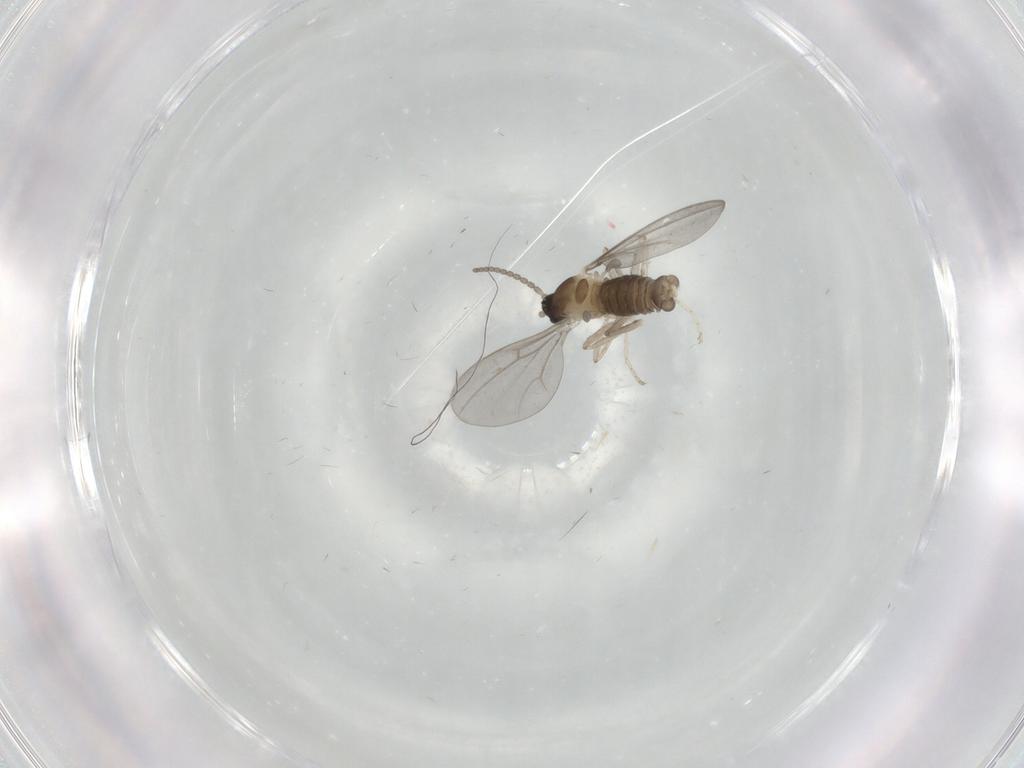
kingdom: Animalia
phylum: Arthropoda
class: Insecta
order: Diptera
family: Cecidomyiidae
